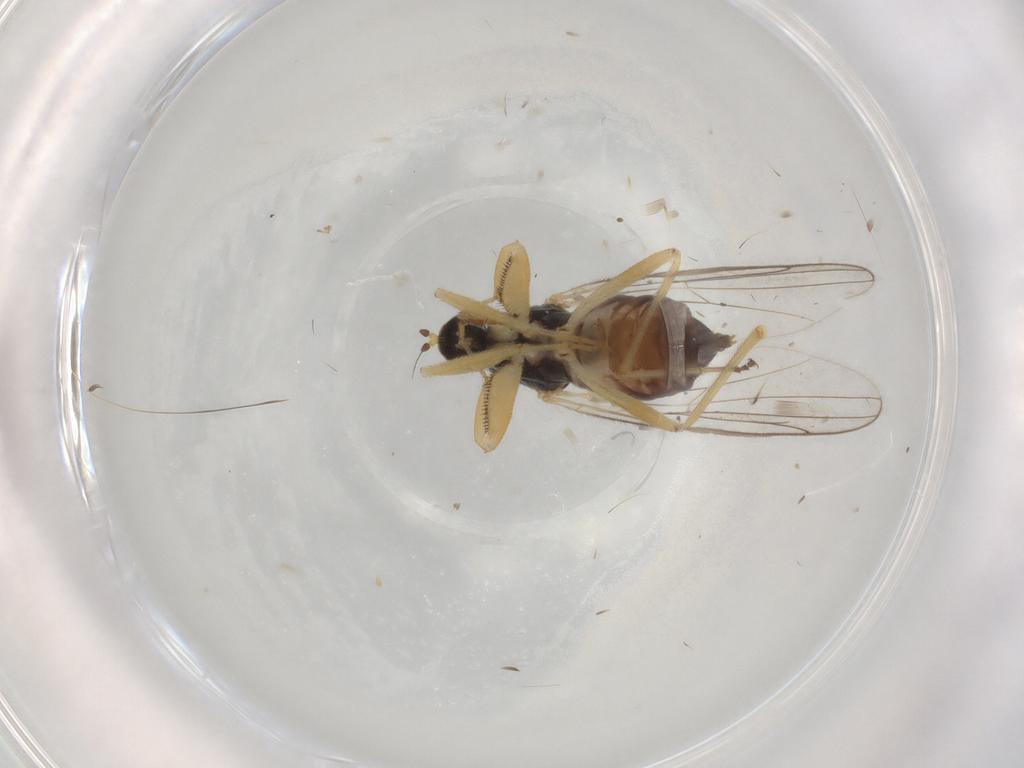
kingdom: Animalia
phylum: Arthropoda
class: Insecta
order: Diptera
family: Hybotidae
